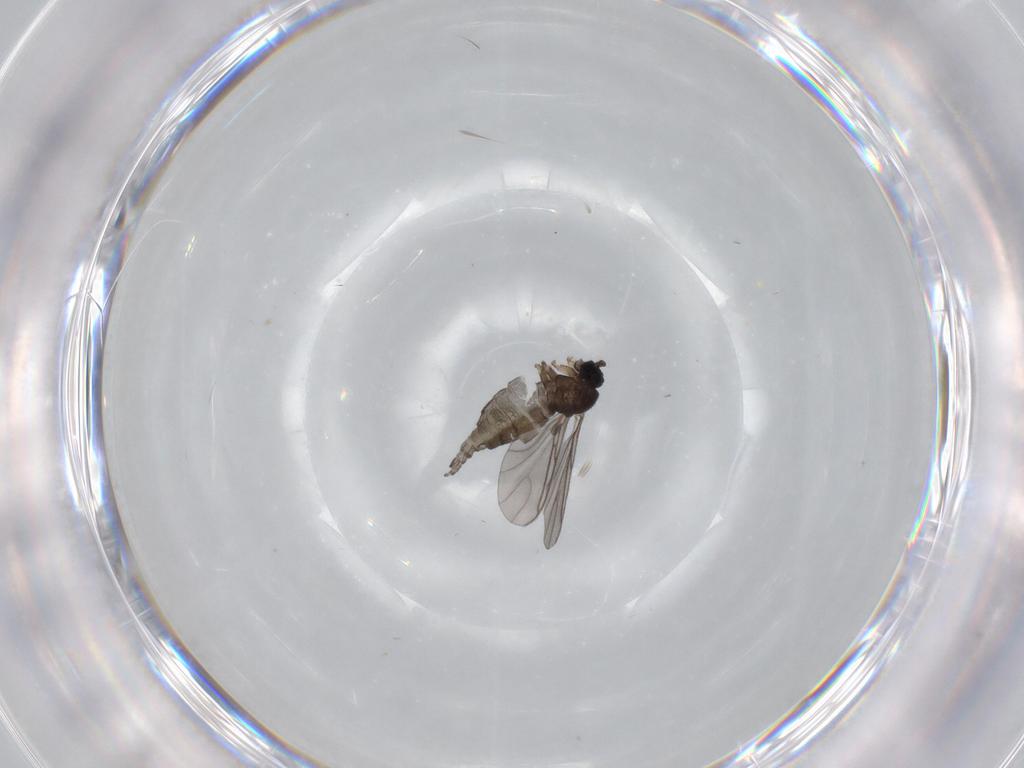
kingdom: Animalia
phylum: Arthropoda
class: Insecta
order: Diptera
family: Sciaridae
